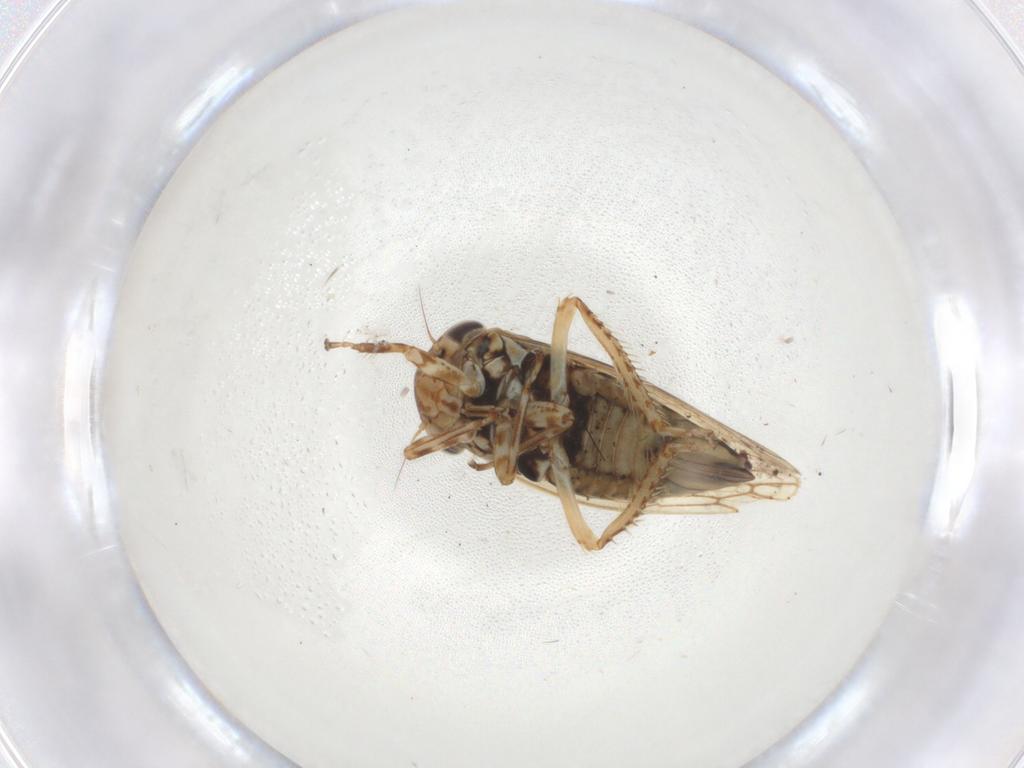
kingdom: Animalia
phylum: Arthropoda
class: Insecta
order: Hemiptera
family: Cicadellidae
